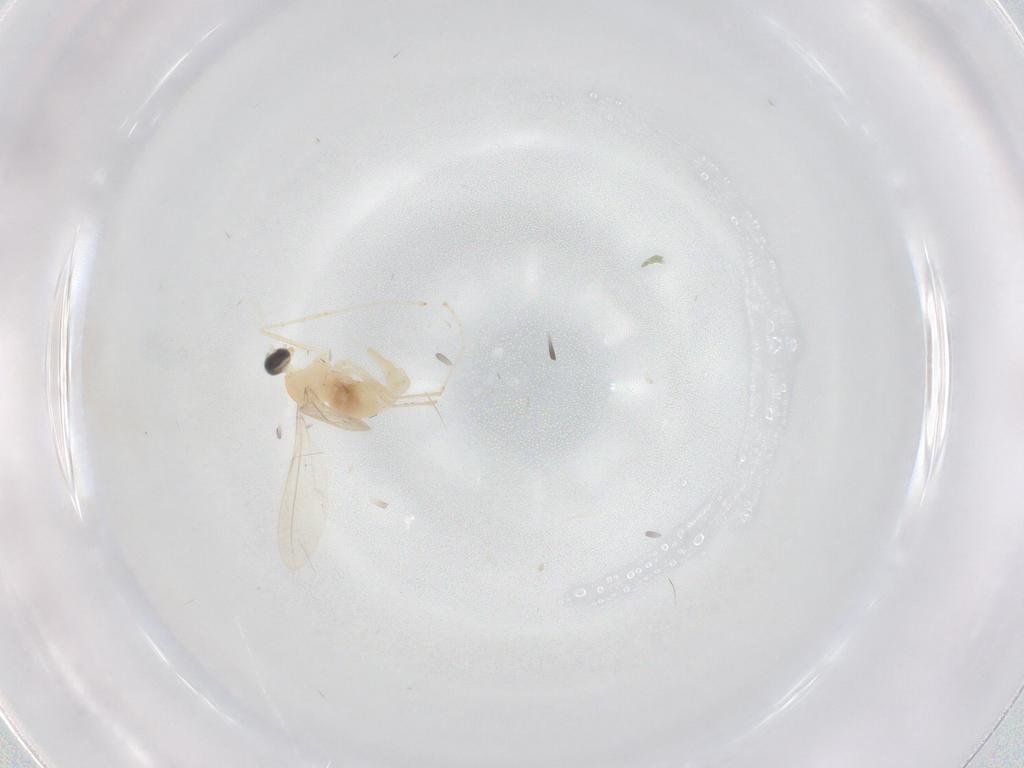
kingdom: Animalia
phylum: Arthropoda
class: Insecta
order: Diptera
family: Cecidomyiidae
